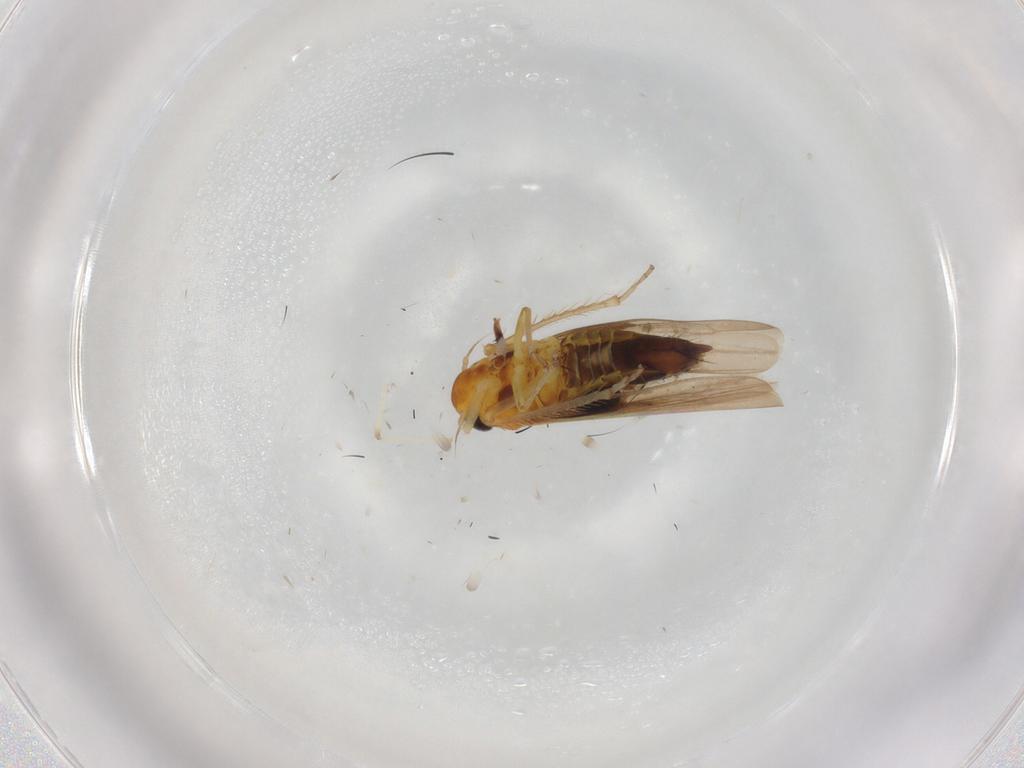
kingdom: Animalia
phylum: Arthropoda
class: Insecta
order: Hemiptera
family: Cicadellidae
